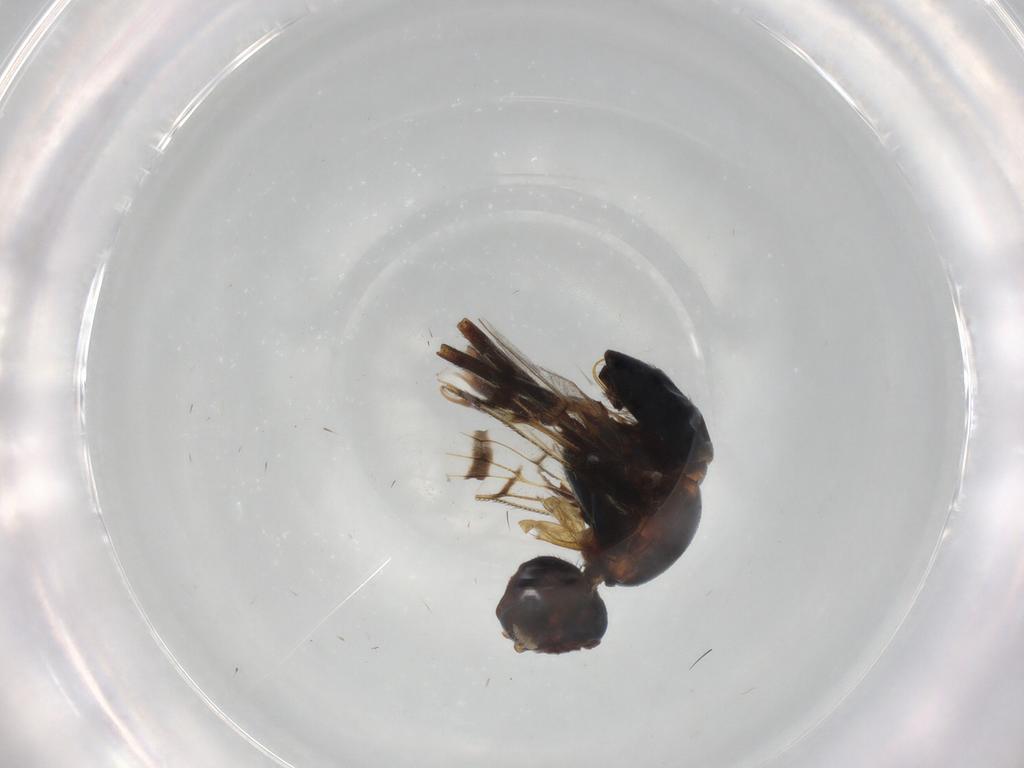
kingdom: Animalia
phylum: Arthropoda
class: Insecta
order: Diptera
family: Platystomatidae
